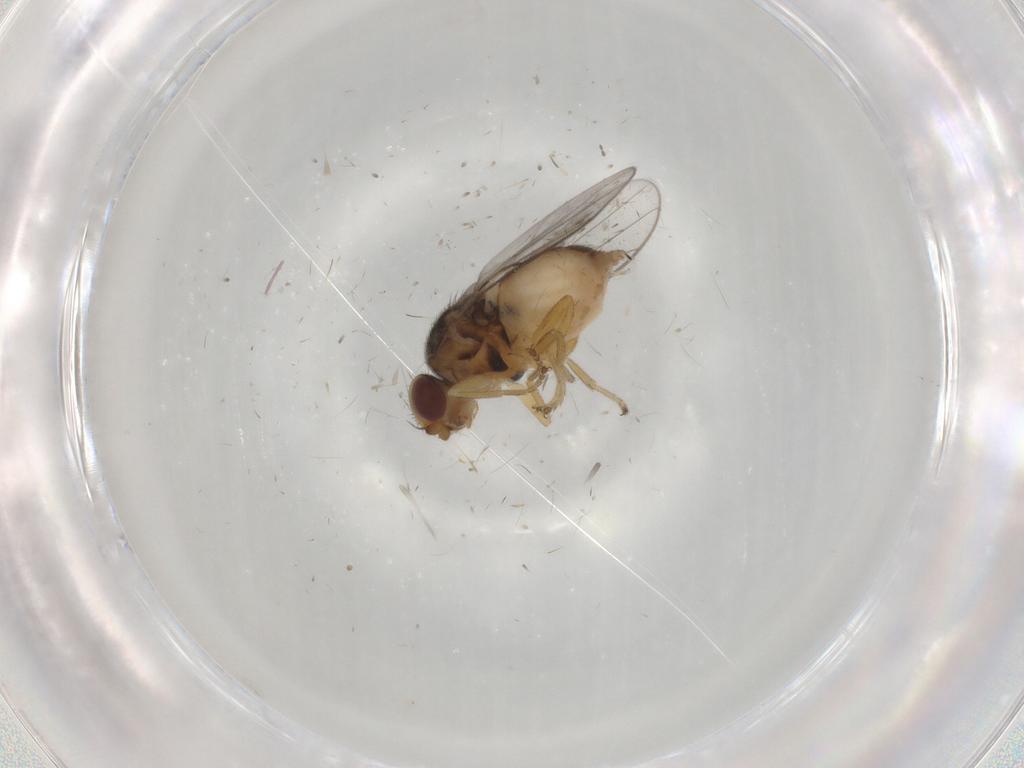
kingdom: Animalia
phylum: Arthropoda
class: Insecta
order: Diptera
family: Chloropidae
